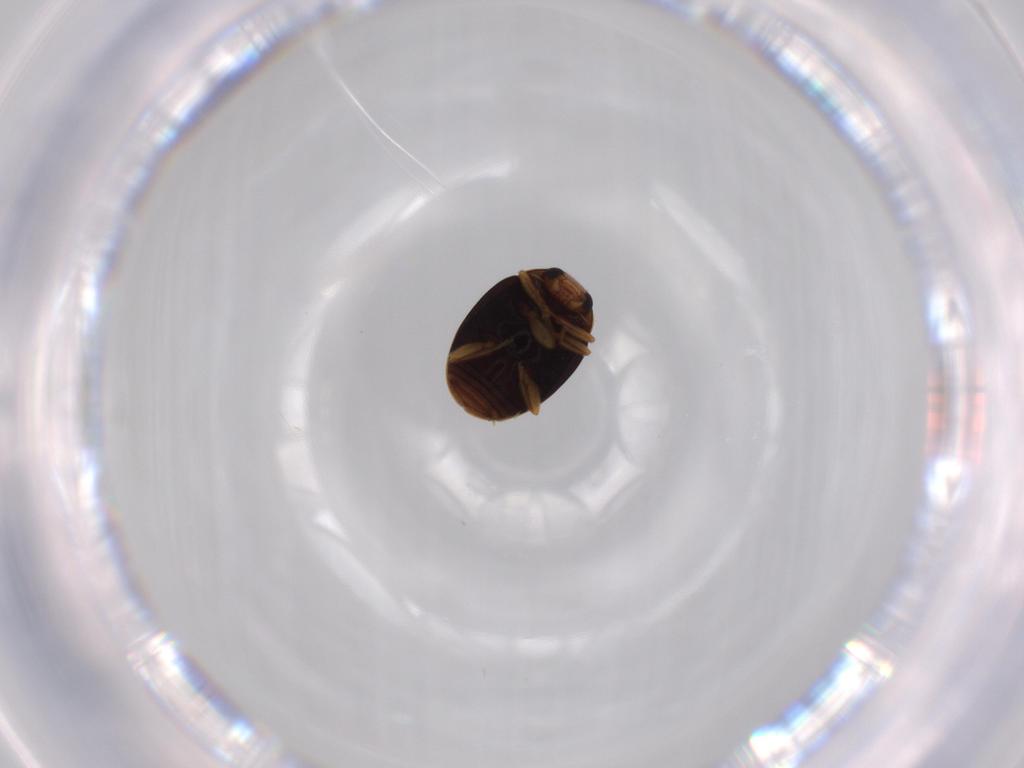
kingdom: Animalia
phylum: Arthropoda
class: Insecta
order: Coleoptera
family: Coccinellidae
